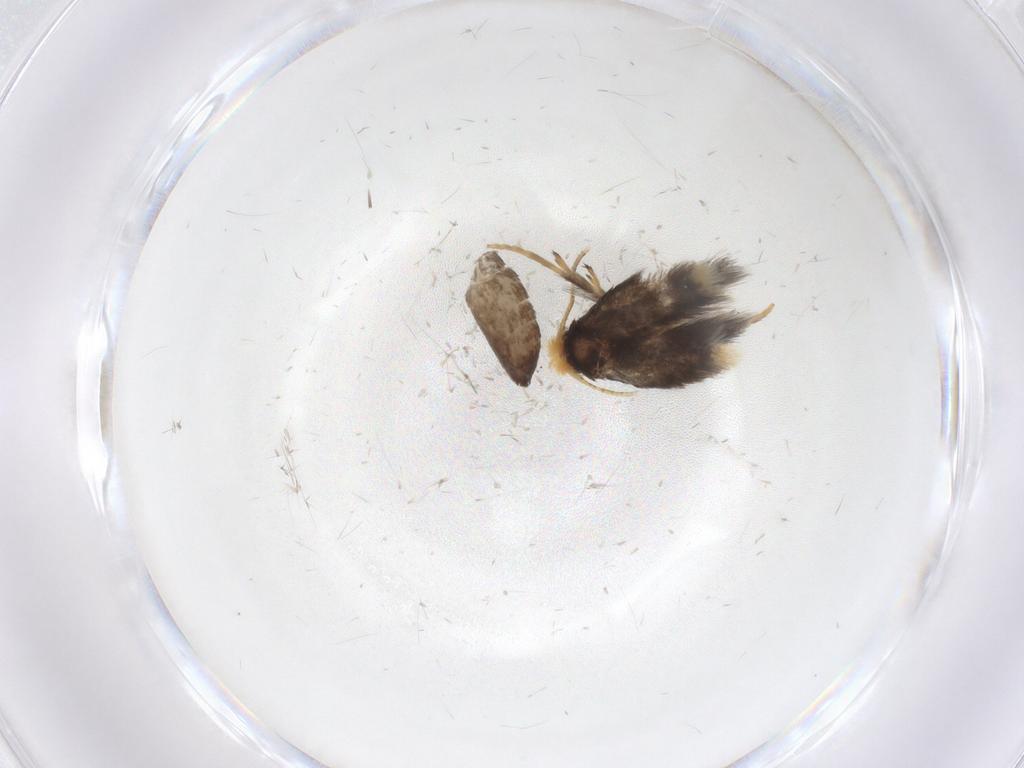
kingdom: Animalia
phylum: Arthropoda
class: Insecta
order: Lepidoptera
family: Nepticulidae
